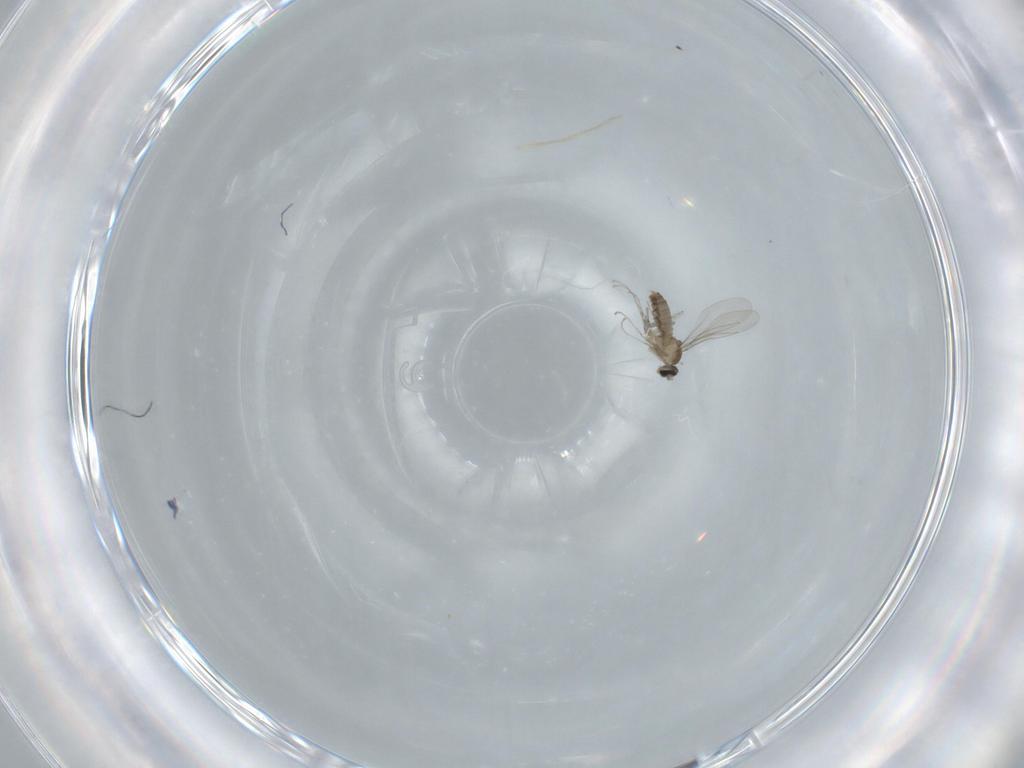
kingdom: Animalia
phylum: Arthropoda
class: Insecta
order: Diptera
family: Cecidomyiidae
